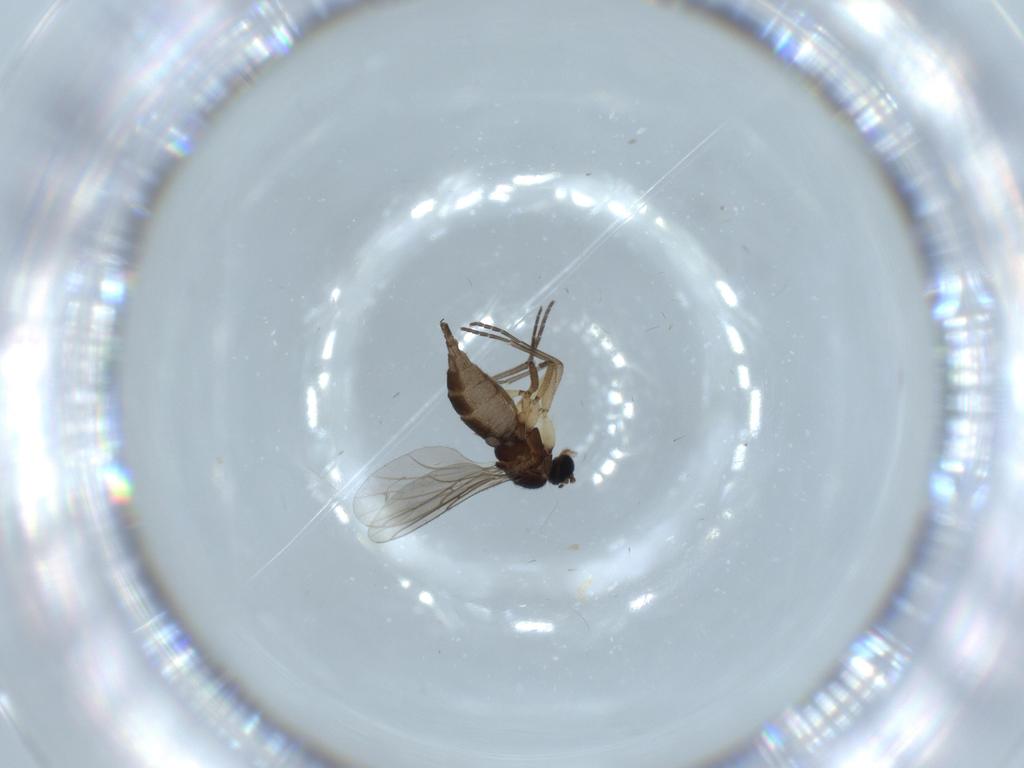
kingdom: Animalia
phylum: Arthropoda
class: Insecta
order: Diptera
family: Sciaridae
